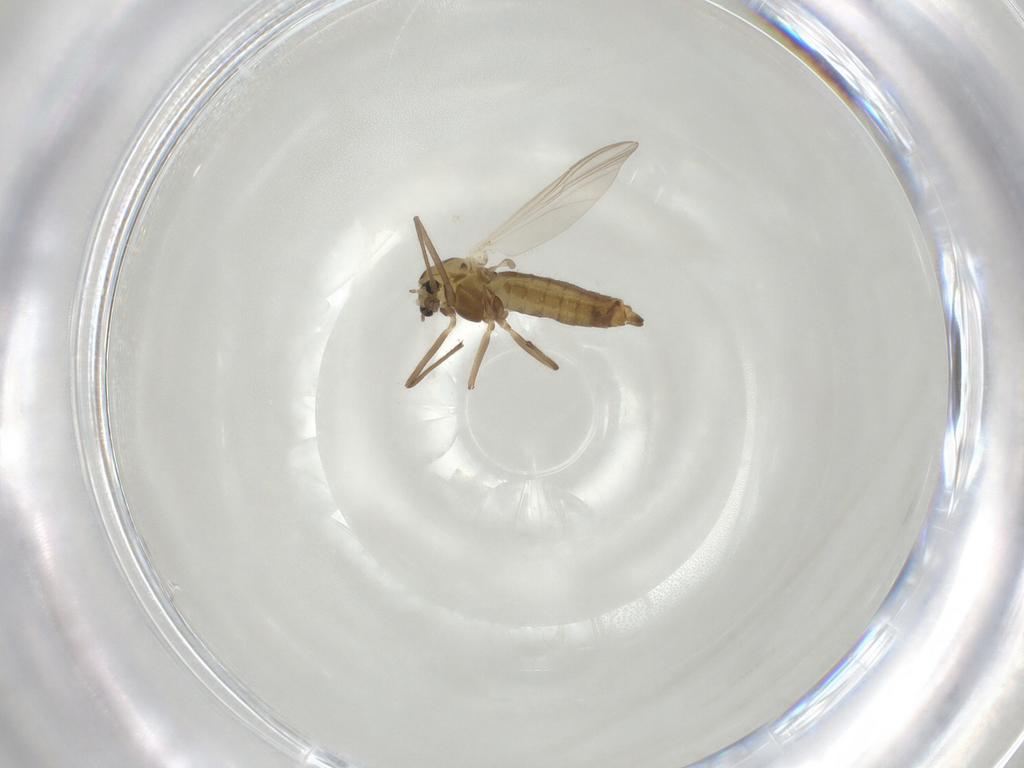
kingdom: Animalia
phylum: Arthropoda
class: Insecta
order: Diptera
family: Chironomidae
